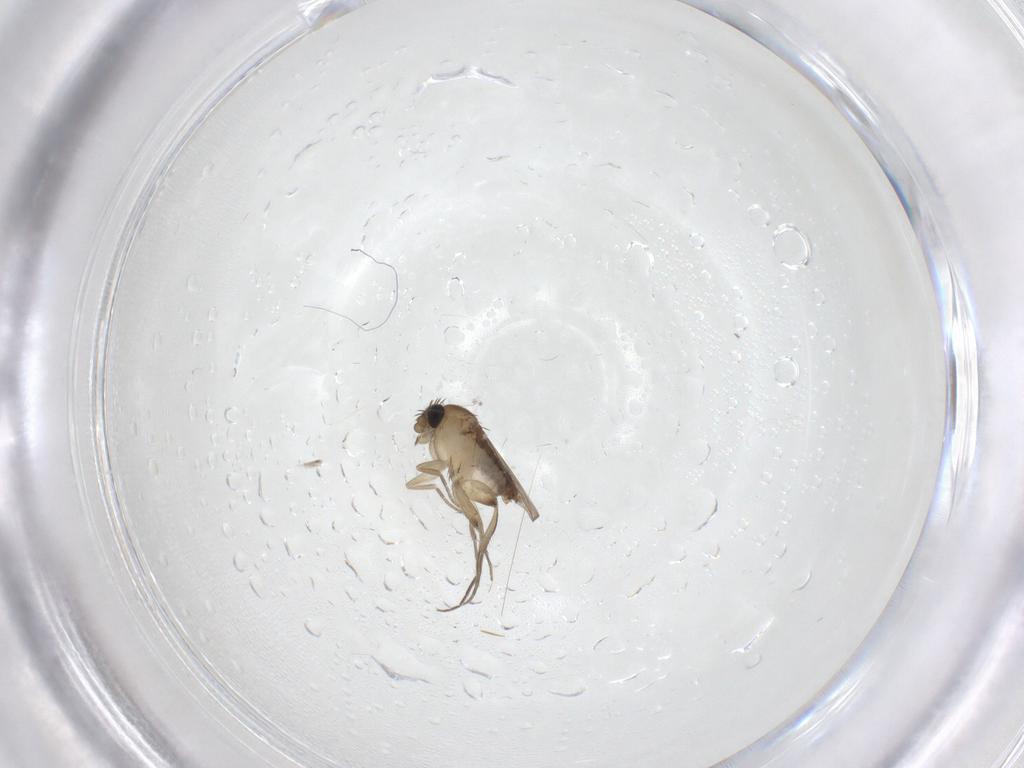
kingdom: Animalia
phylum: Arthropoda
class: Insecta
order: Diptera
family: Phoridae
